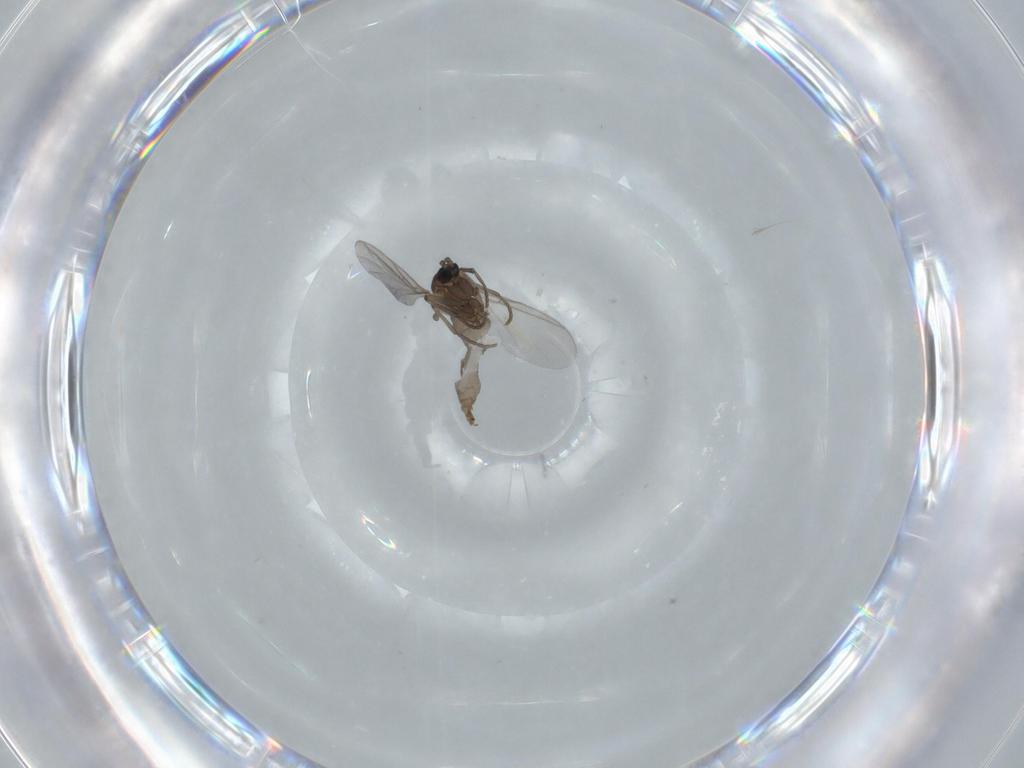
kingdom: Animalia
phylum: Arthropoda
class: Insecta
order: Diptera
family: Sciaridae
